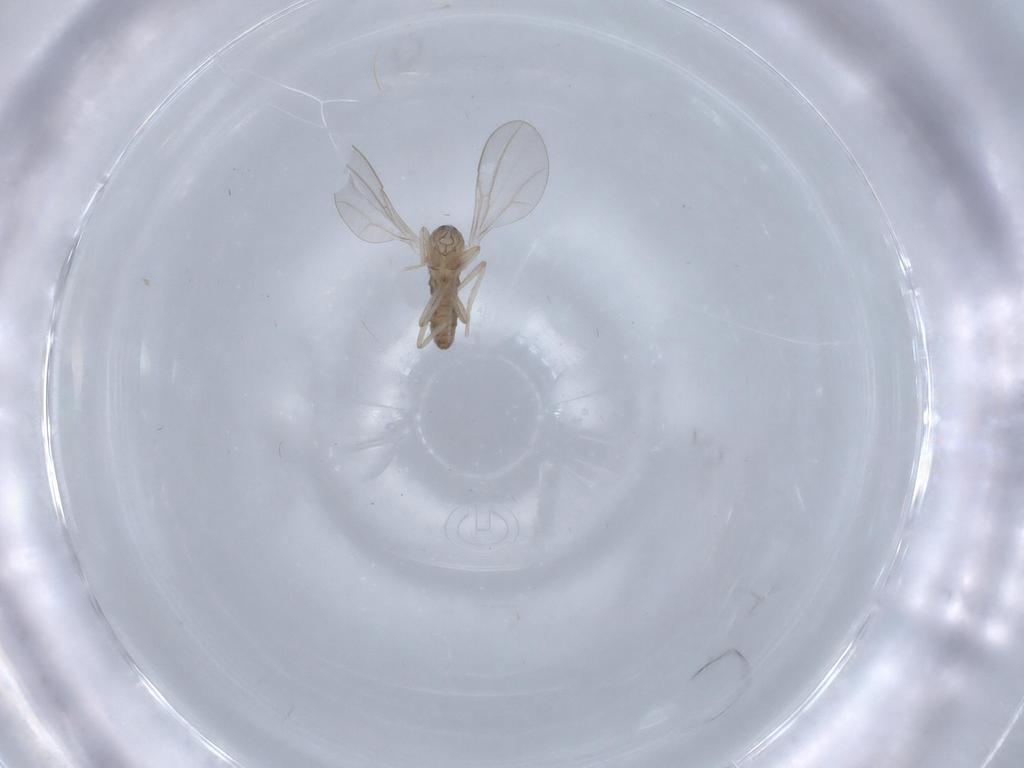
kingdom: Animalia
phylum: Arthropoda
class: Insecta
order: Diptera
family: Cecidomyiidae
